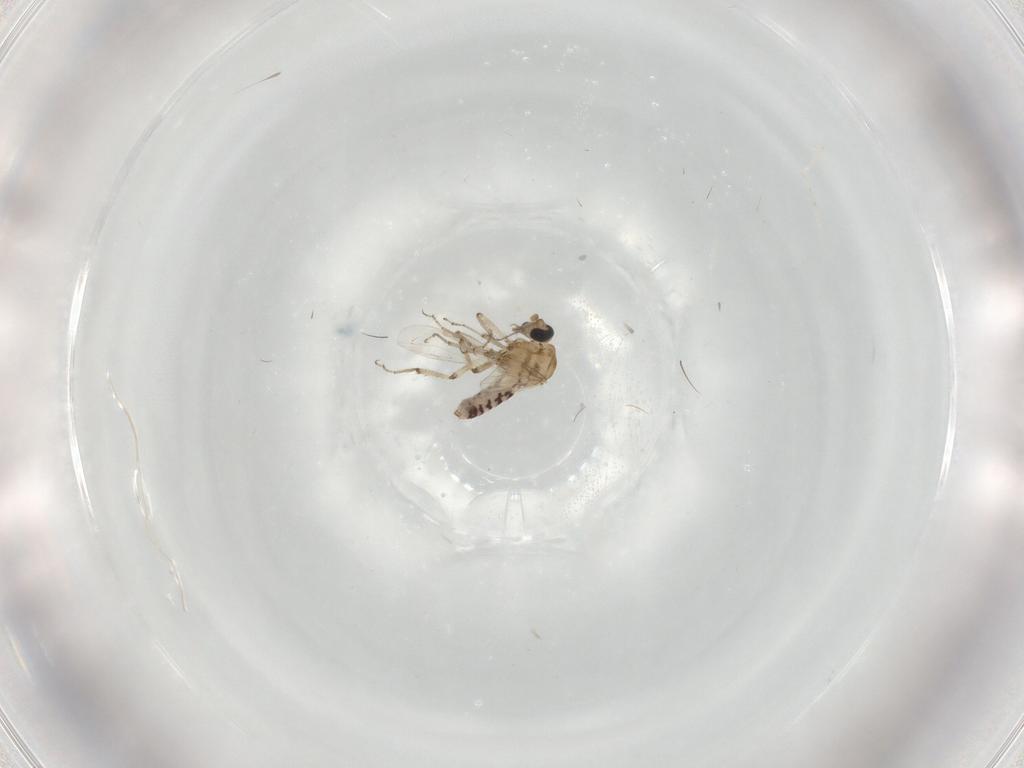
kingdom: Animalia
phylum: Arthropoda
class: Insecta
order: Diptera
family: Ceratopogonidae
